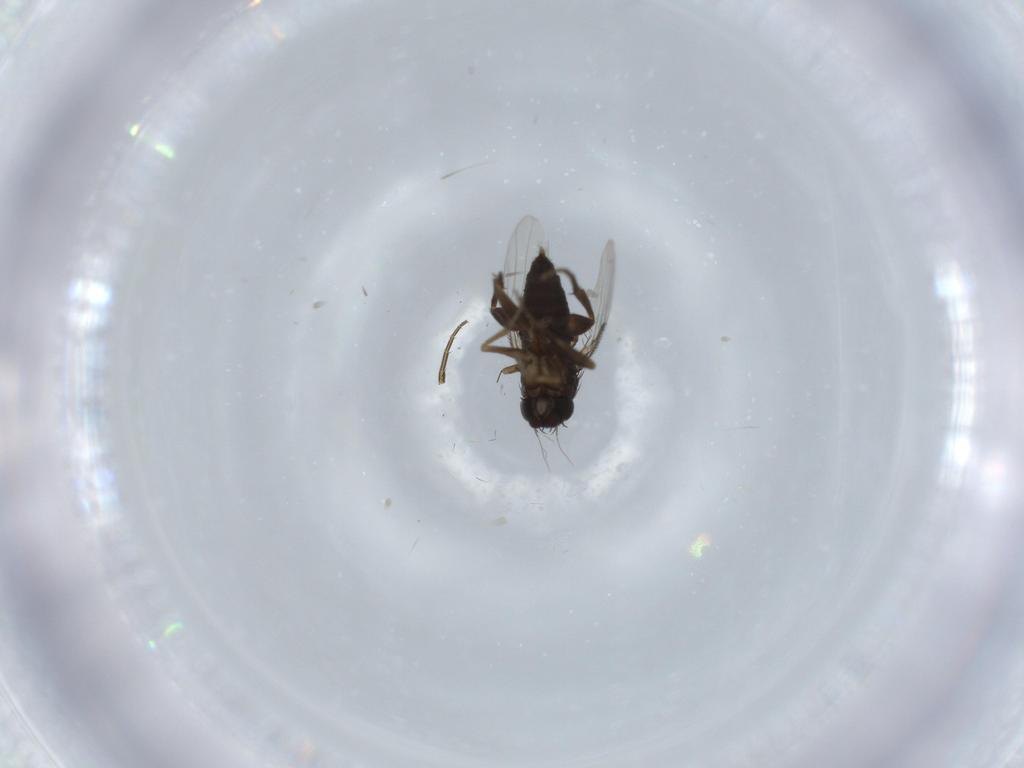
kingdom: Animalia
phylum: Arthropoda
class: Insecta
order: Diptera
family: Phoridae
